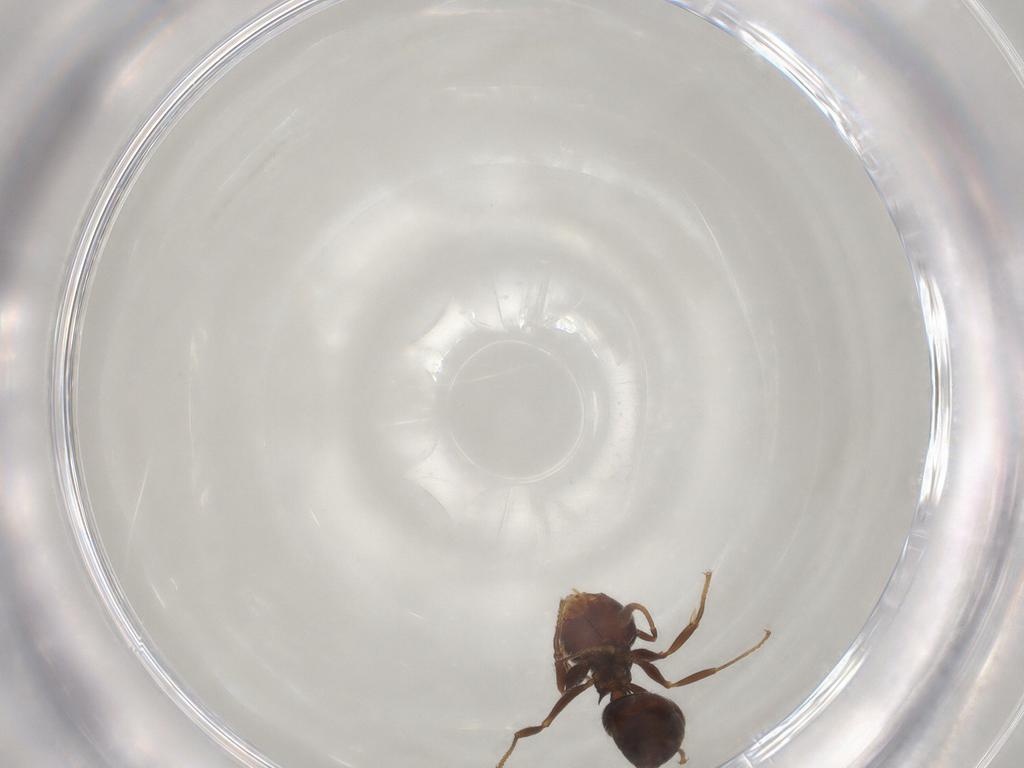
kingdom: Animalia
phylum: Arthropoda
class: Insecta
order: Hymenoptera
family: Formicidae
